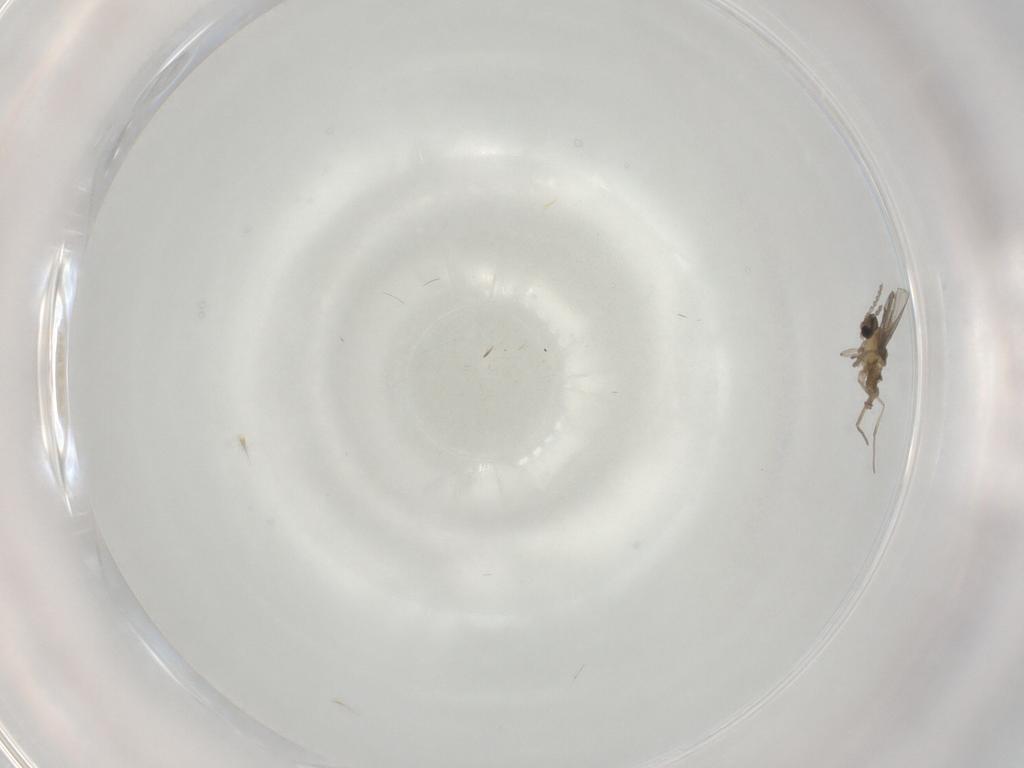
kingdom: Animalia
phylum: Arthropoda
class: Insecta
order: Diptera
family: Cecidomyiidae
